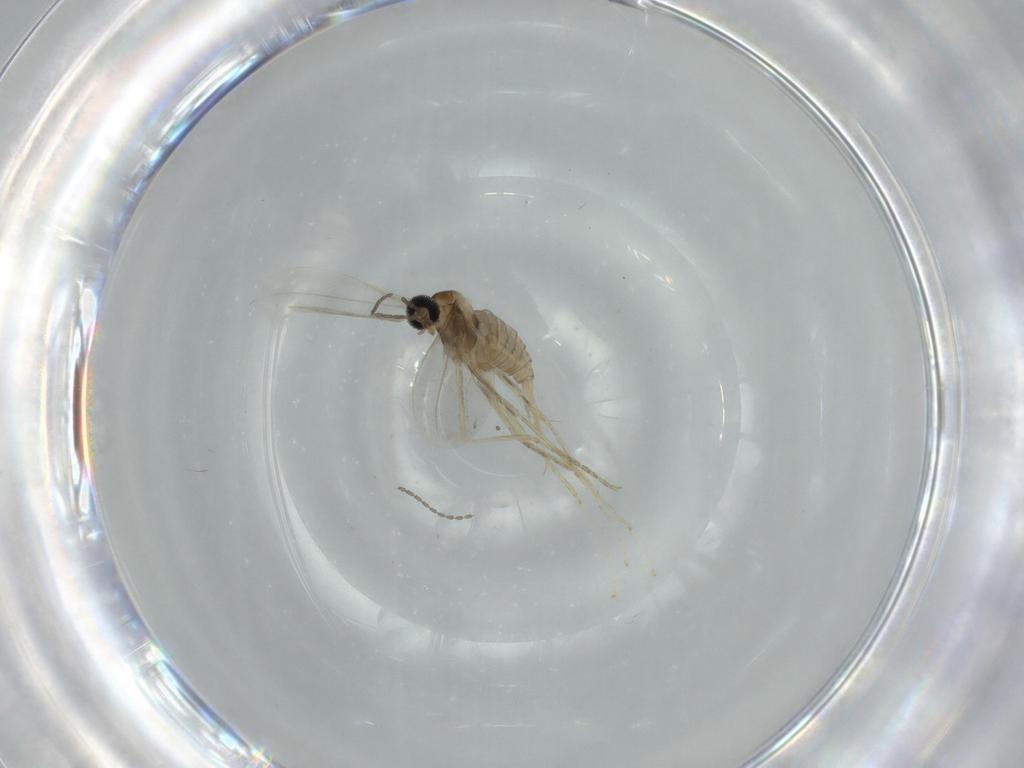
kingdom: Animalia
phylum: Arthropoda
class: Insecta
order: Diptera
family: Cecidomyiidae
